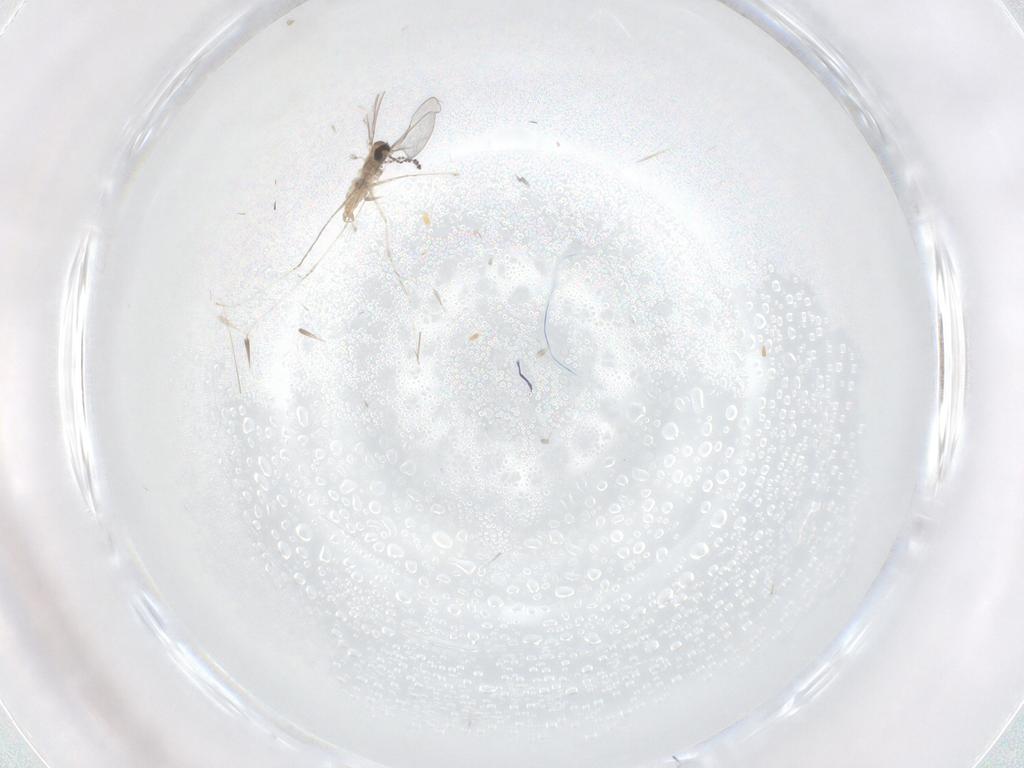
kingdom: Animalia
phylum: Arthropoda
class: Insecta
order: Diptera
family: Cecidomyiidae
